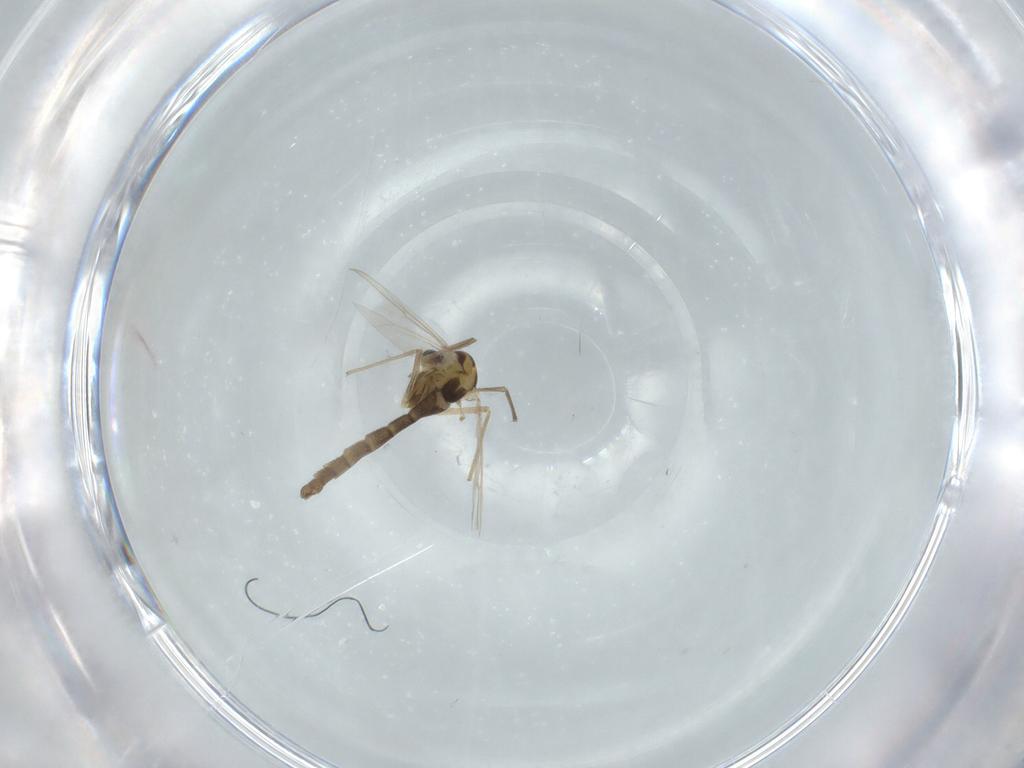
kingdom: Animalia
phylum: Arthropoda
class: Insecta
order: Diptera
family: Chironomidae
